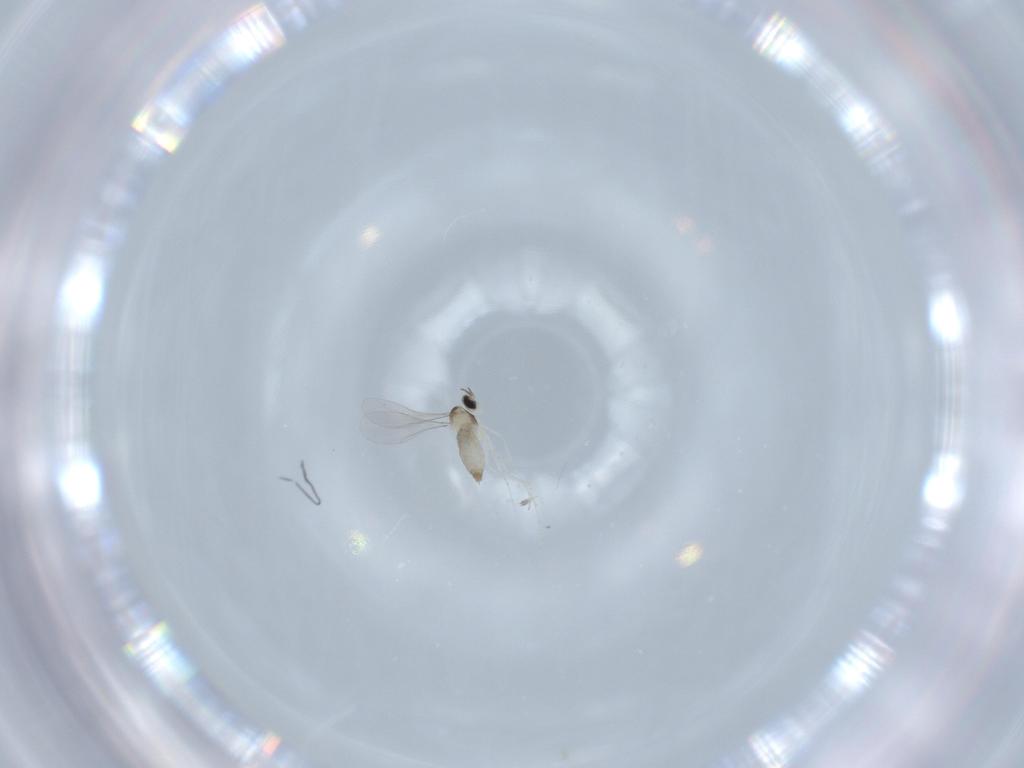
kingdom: Animalia
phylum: Arthropoda
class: Insecta
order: Diptera
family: Cecidomyiidae
